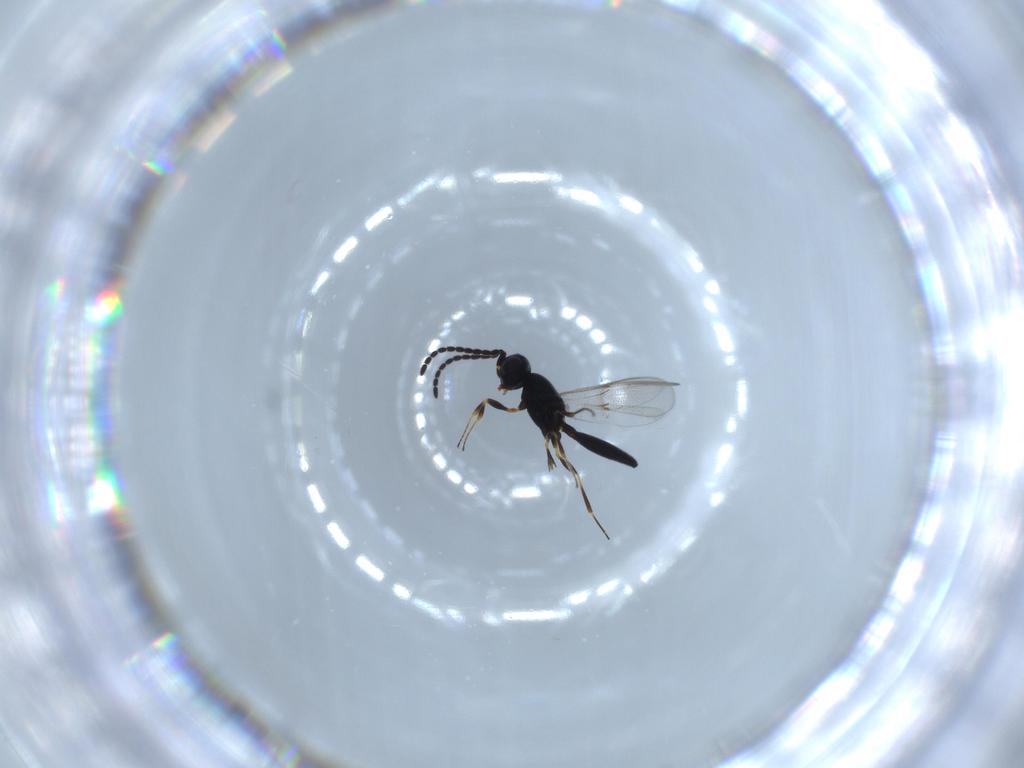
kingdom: Animalia
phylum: Arthropoda
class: Insecta
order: Hymenoptera
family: Scelionidae
